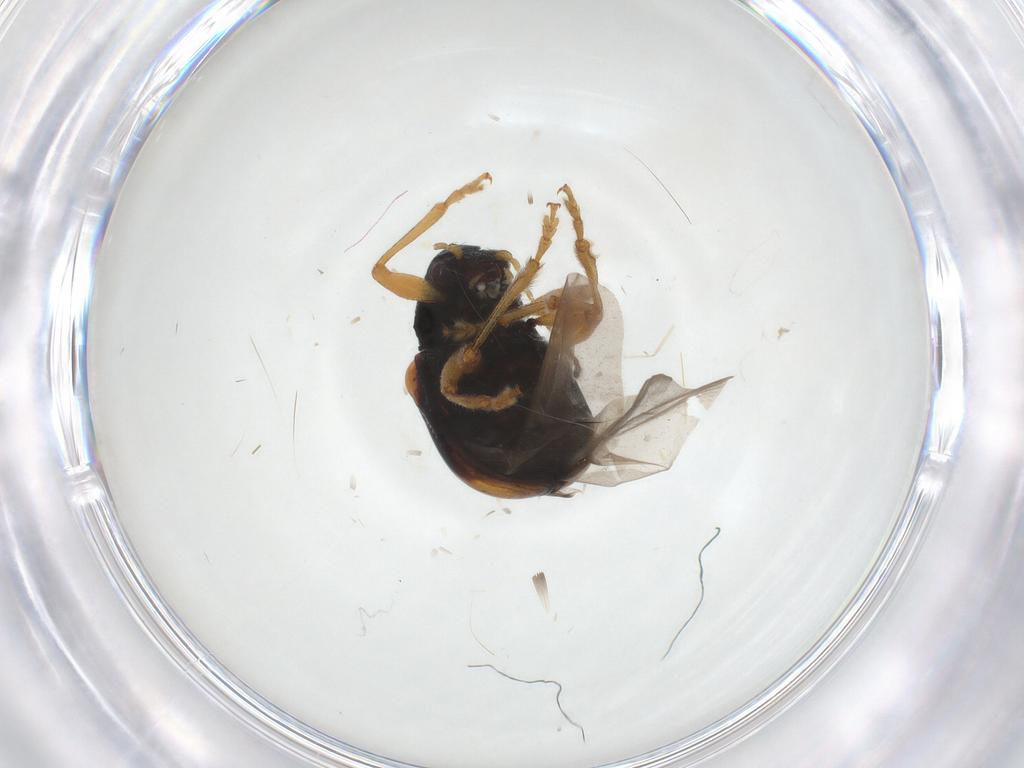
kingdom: Animalia
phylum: Arthropoda
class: Insecta
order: Coleoptera
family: Chrysomelidae
